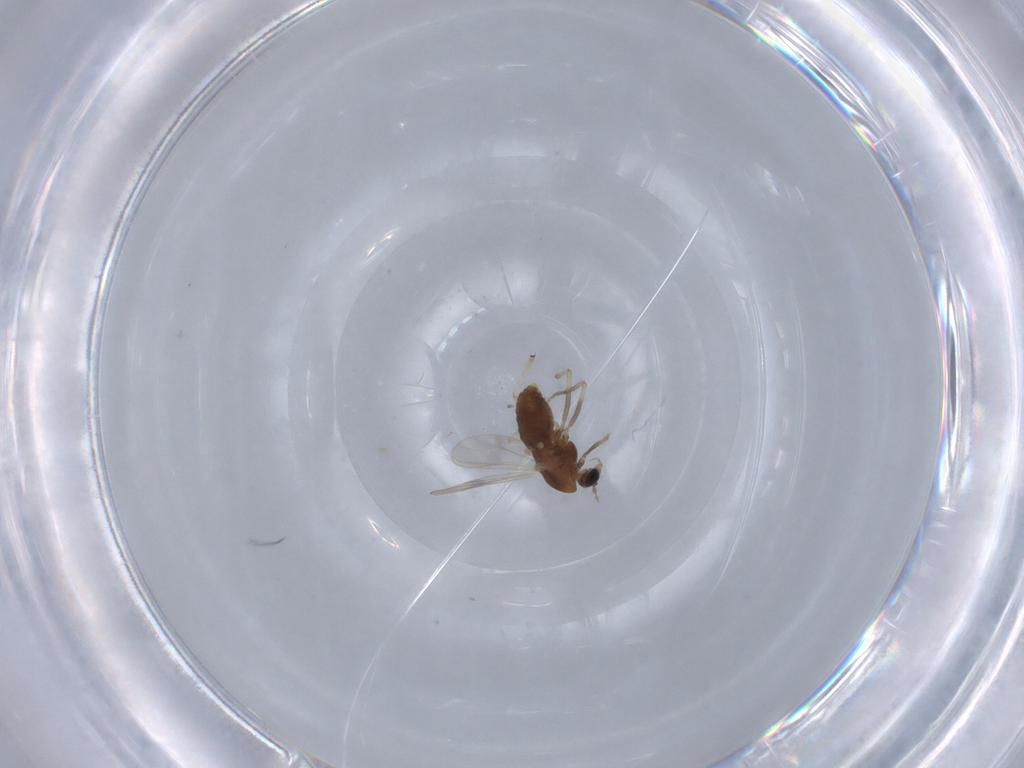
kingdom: Animalia
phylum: Arthropoda
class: Insecta
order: Diptera
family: Chironomidae
